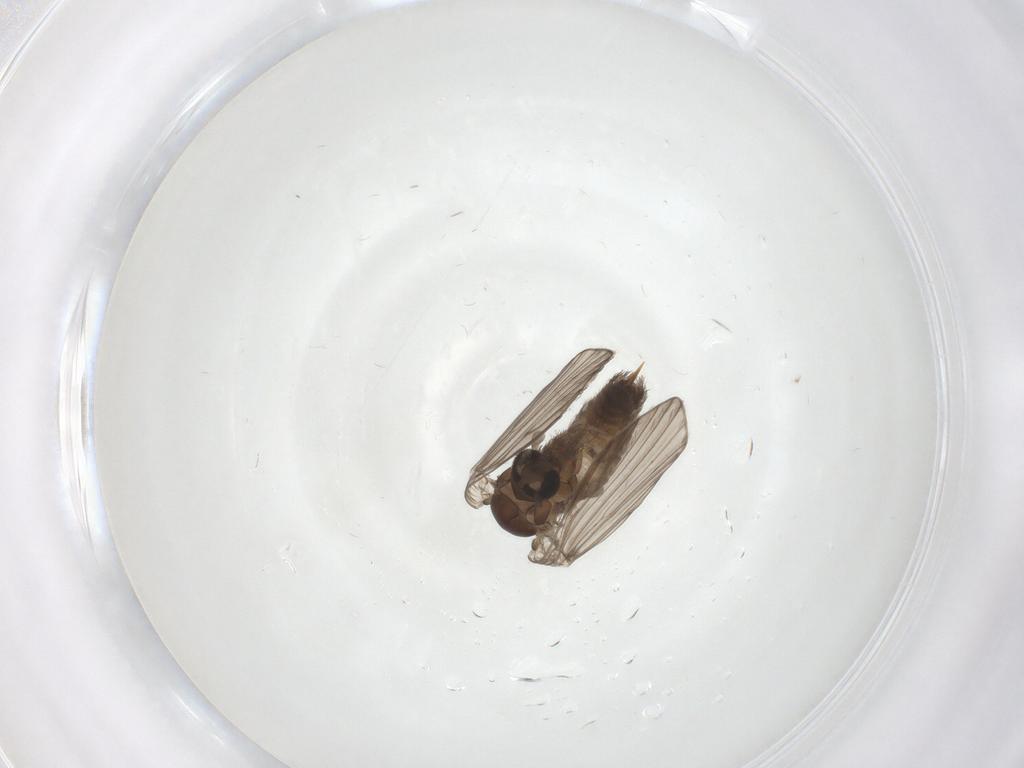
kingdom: Animalia
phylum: Arthropoda
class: Insecta
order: Diptera
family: Psychodidae
